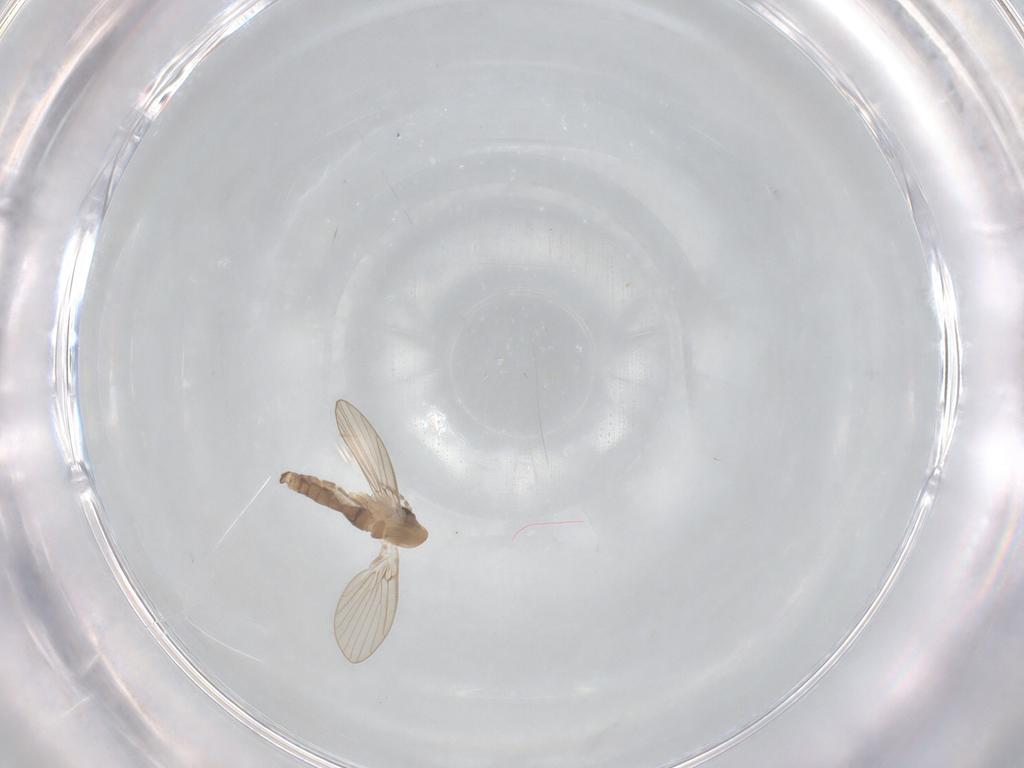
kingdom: Animalia
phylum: Arthropoda
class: Insecta
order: Diptera
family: Psychodidae
